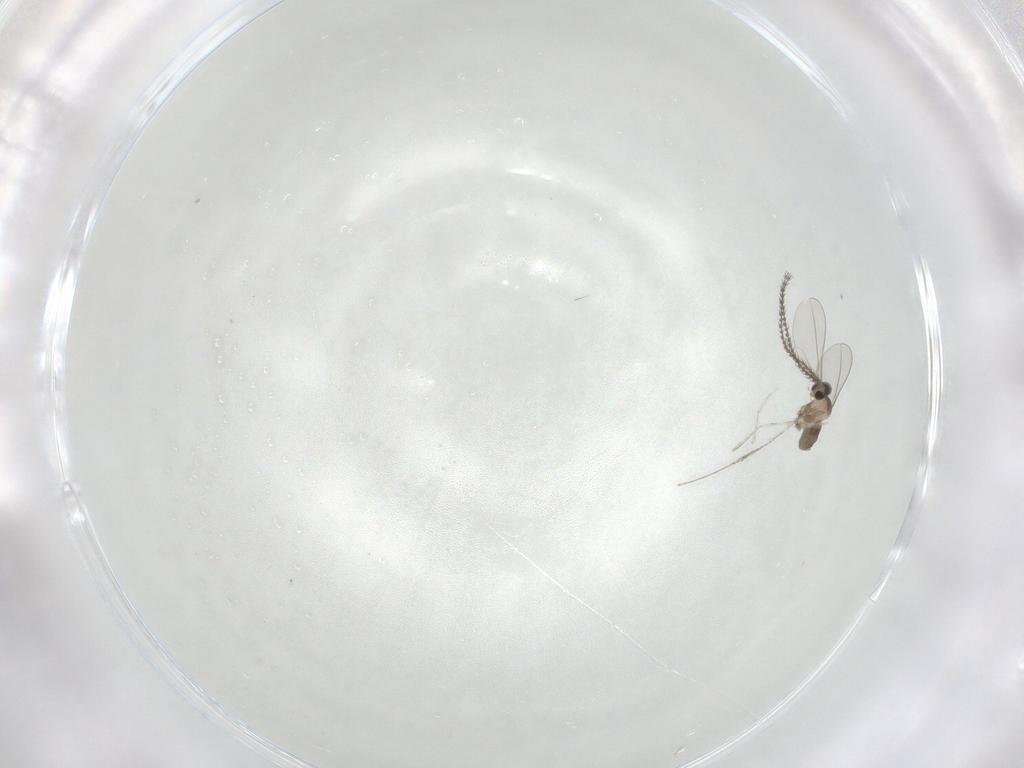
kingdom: Animalia
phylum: Arthropoda
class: Insecta
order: Diptera
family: Cecidomyiidae
